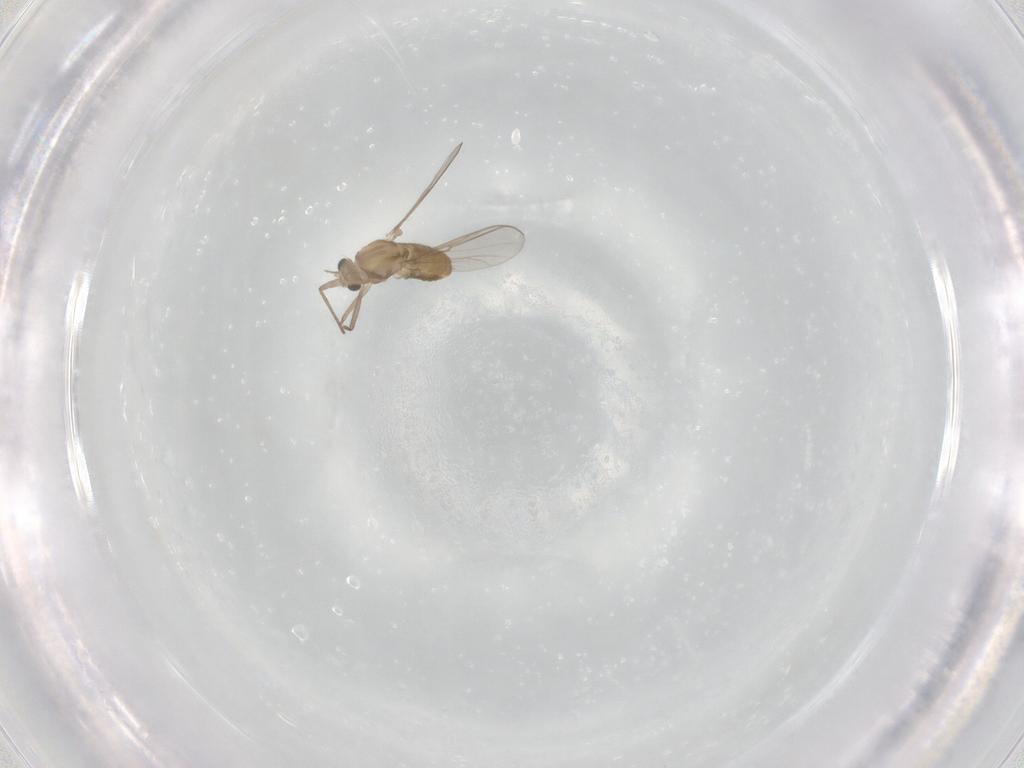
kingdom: Animalia
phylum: Arthropoda
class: Insecta
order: Diptera
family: Chironomidae
